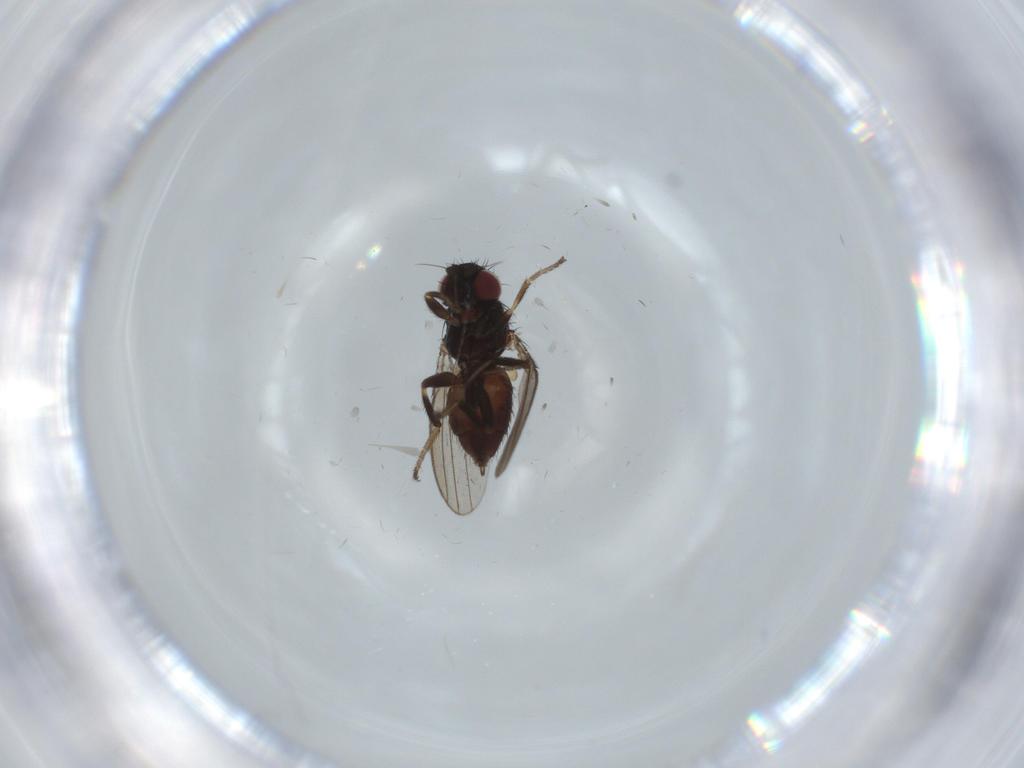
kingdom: Animalia
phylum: Arthropoda
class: Insecta
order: Diptera
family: Milichiidae
